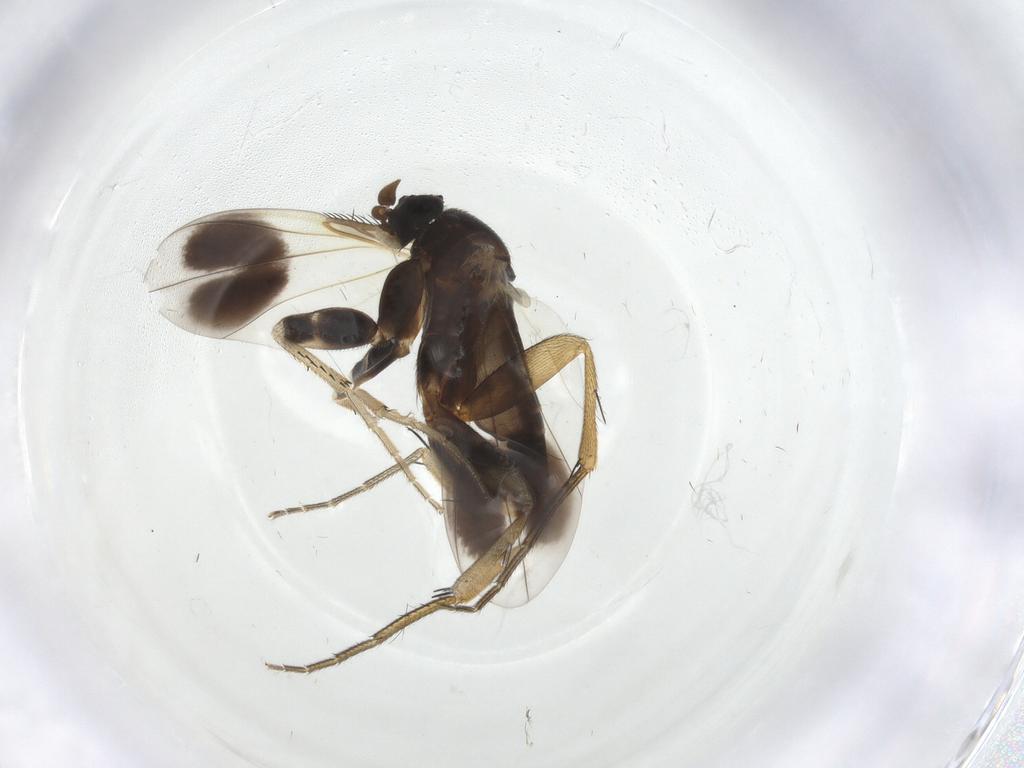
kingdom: Animalia
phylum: Arthropoda
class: Insecta
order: Diptera
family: Phoridae
